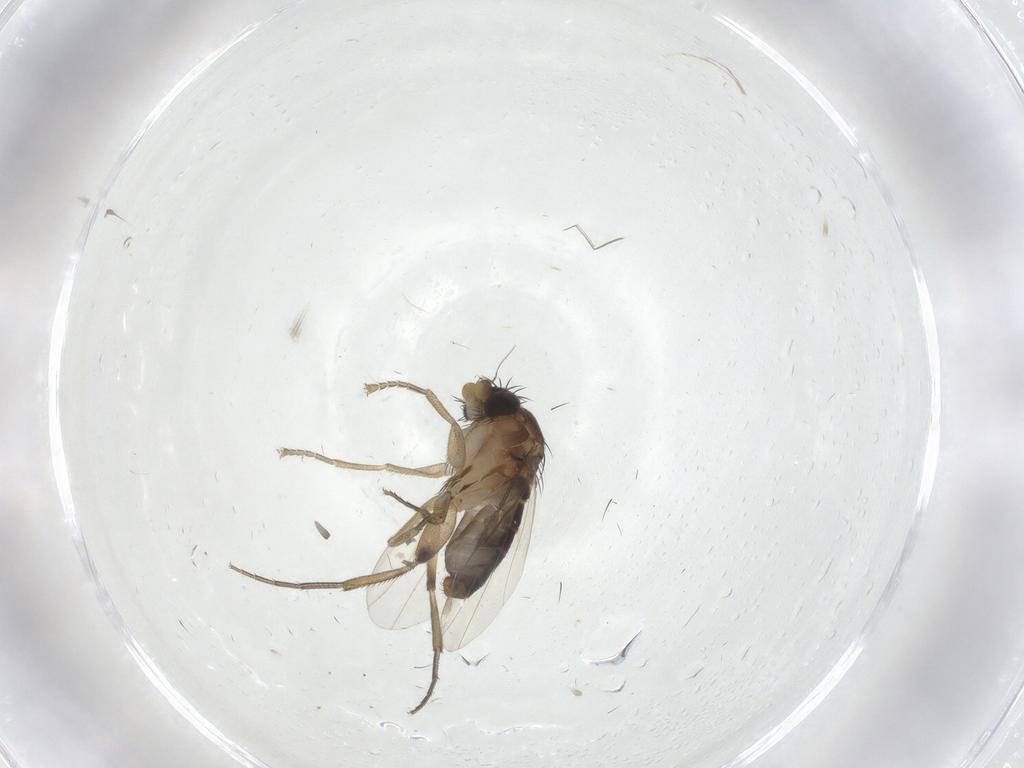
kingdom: Animalia
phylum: Arthropoda
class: Insecta
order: Diptera
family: Phoridae
